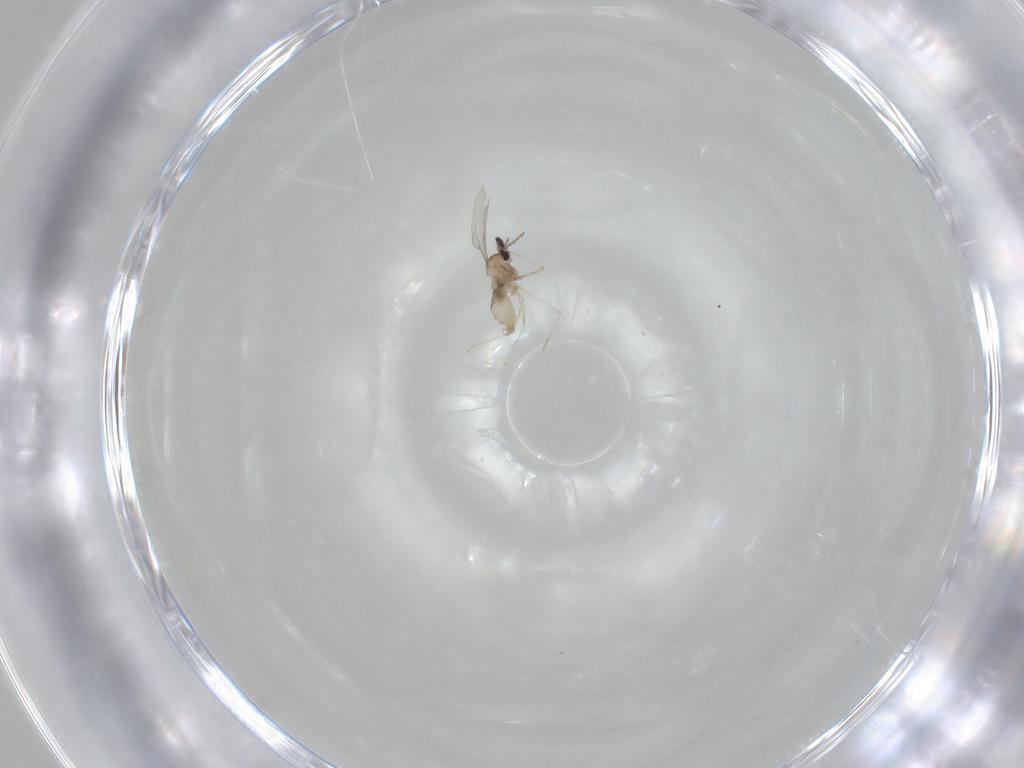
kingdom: Animalia
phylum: Arthropoda
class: Insecta
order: Diptera
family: Cecidomyiidae
